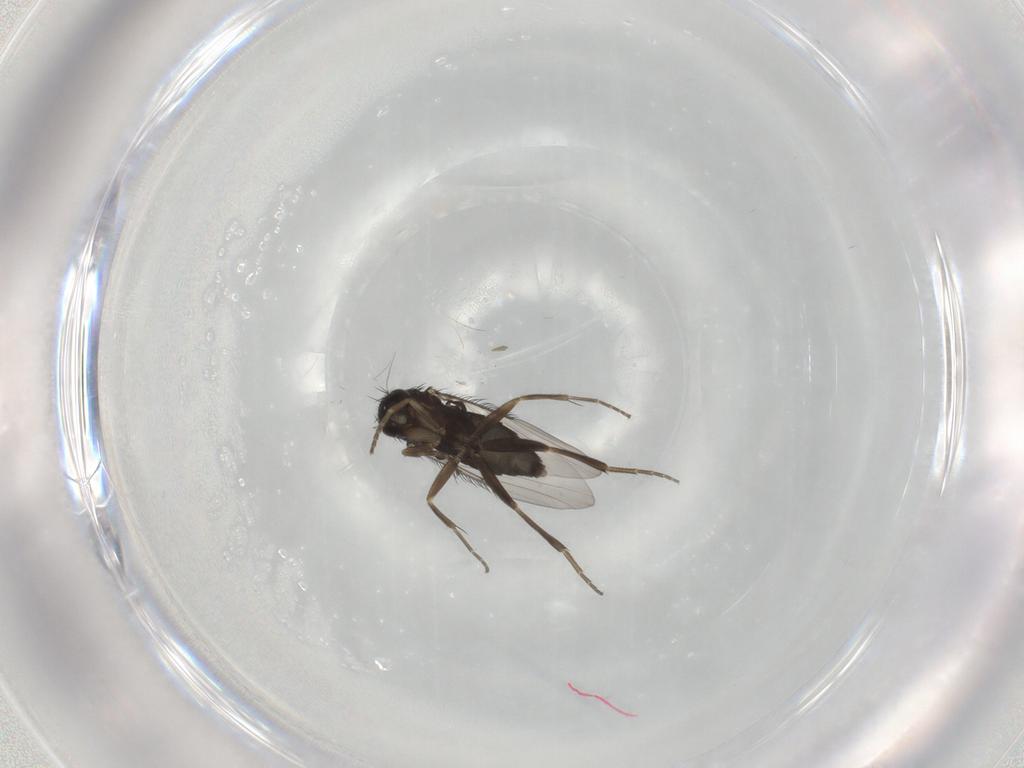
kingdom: Animalia
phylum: Arthropoda
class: Insecta
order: Diptera
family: Phoridae
